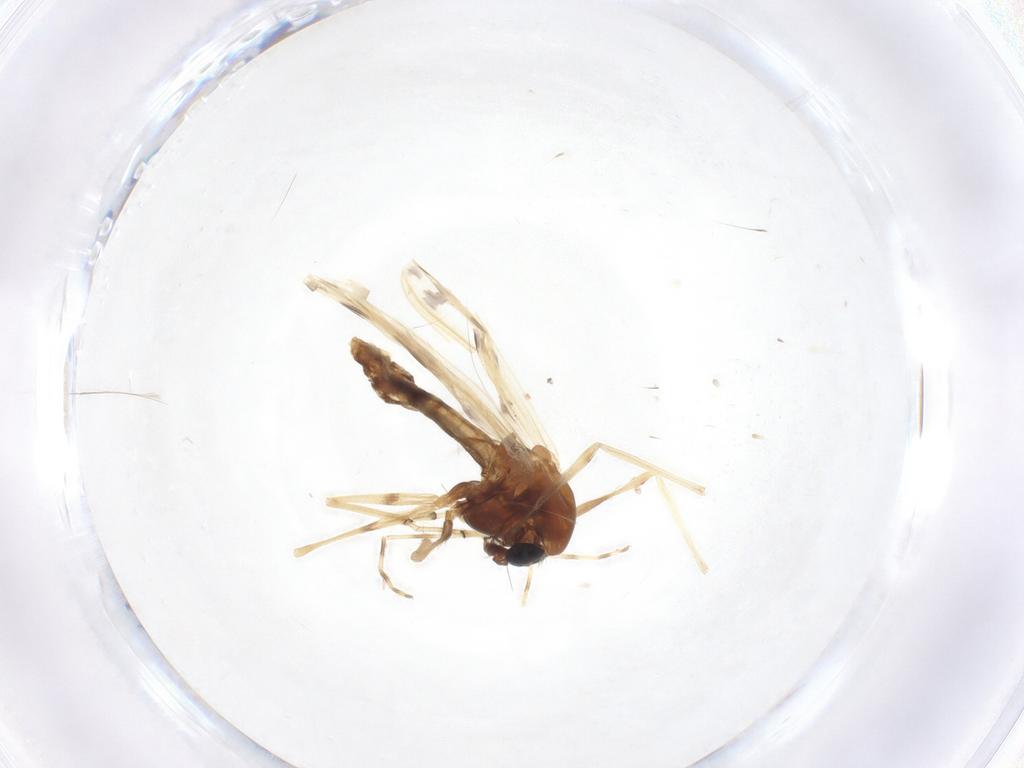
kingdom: Animalia
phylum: Arthropoda
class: Insecta
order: Diptera
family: Chironomidae
